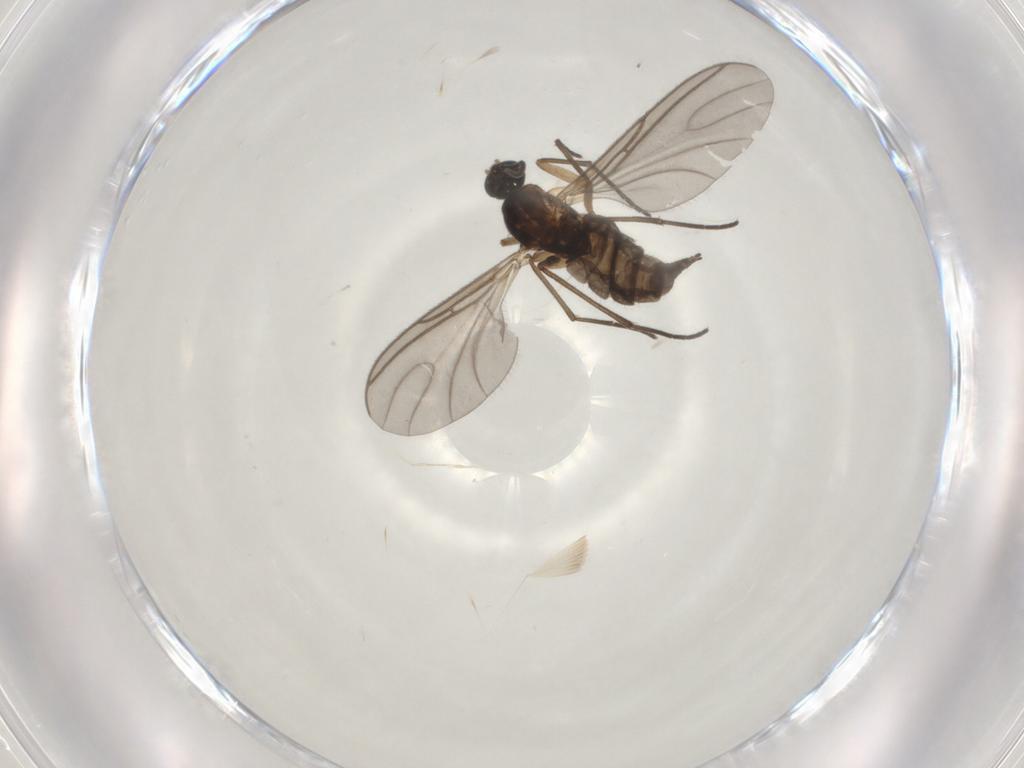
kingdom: Animalia
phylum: Arthropoda
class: Insecta
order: Diptera
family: Sciaridae
